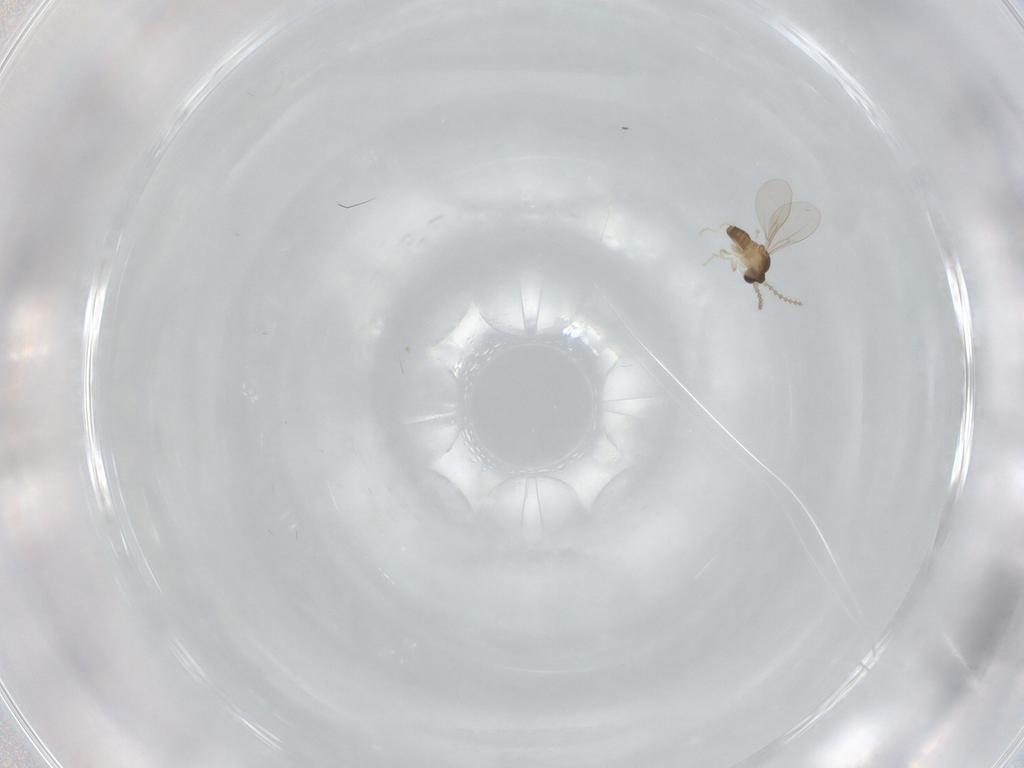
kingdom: Animalia
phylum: Arthropoda
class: Insecta
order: Diptera
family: Cecidomyiidae
